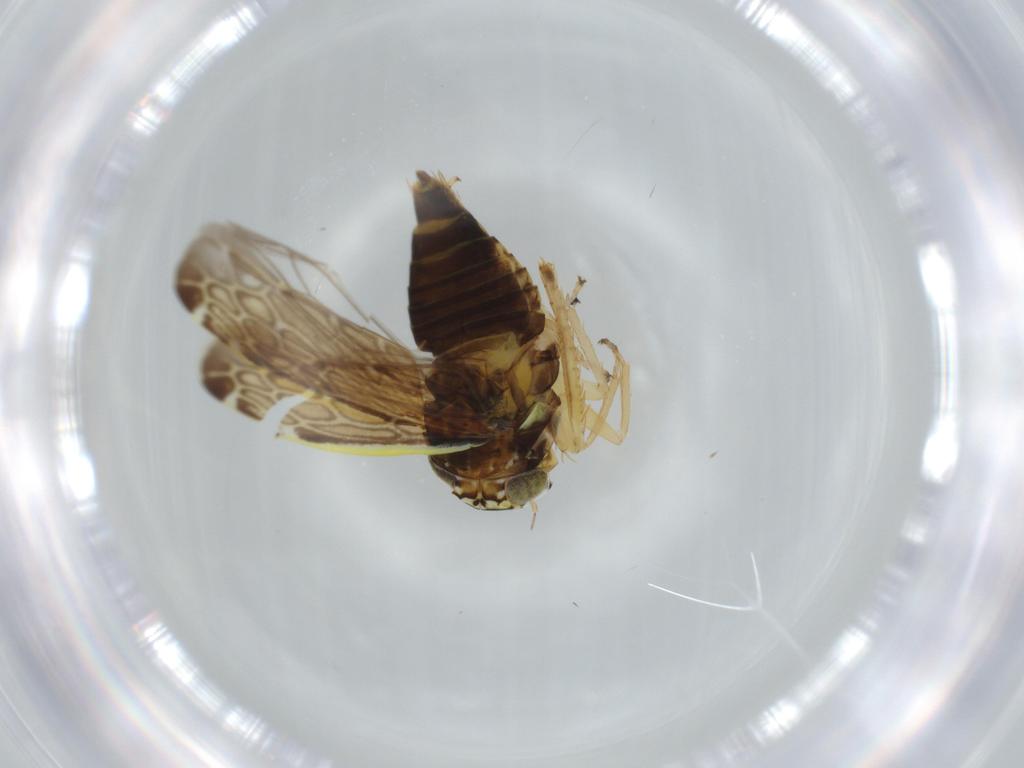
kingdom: Animalia
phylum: Arthropoda
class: Insecta
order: Hemiptera
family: Cicadellidae
